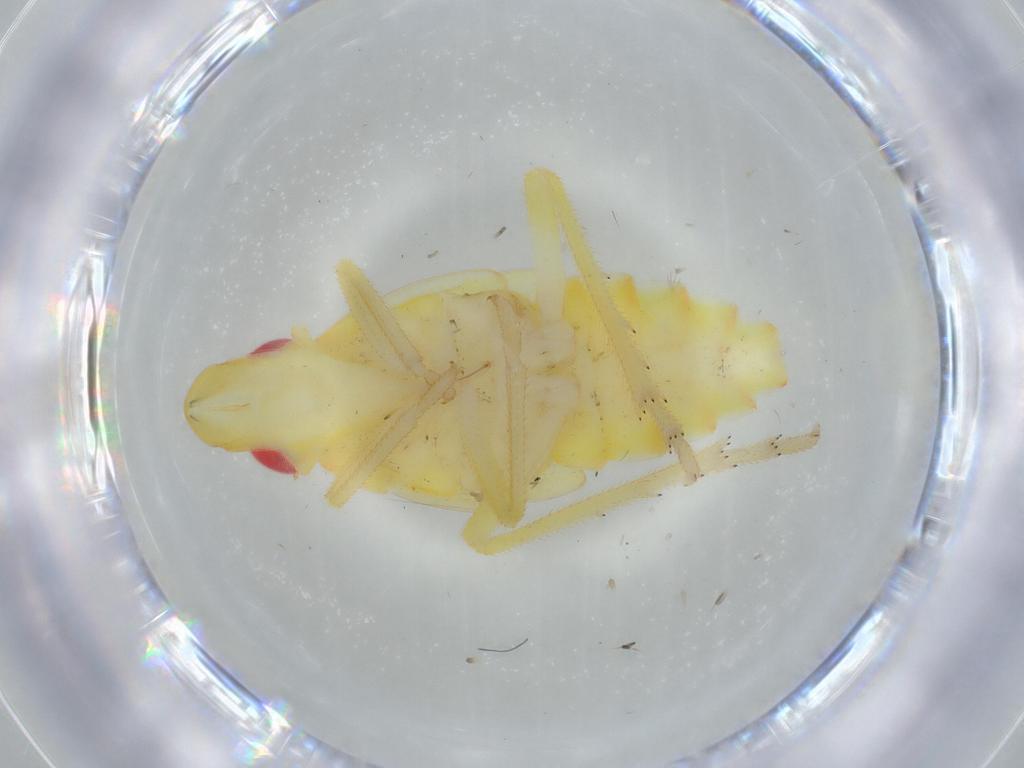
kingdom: Animalia
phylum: Arthropoda
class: Insecta
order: Hemiptera
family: Tropiduchidae
